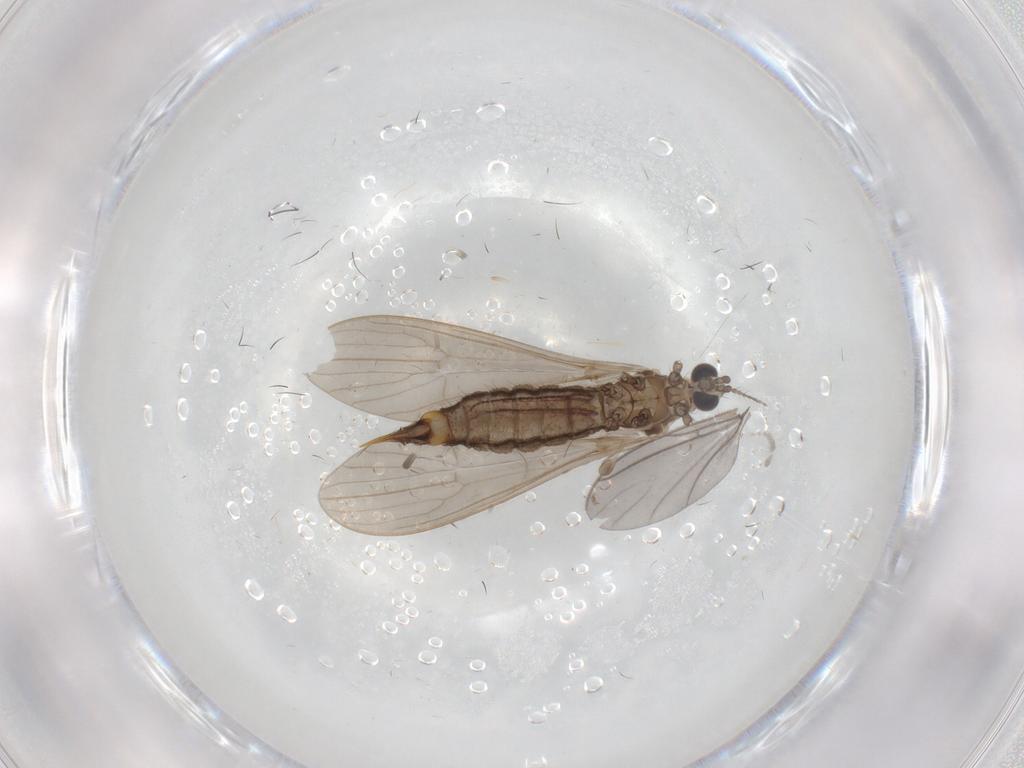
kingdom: Animalia
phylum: Arthropoda
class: Insecta
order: Diptera
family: Limoniidae
